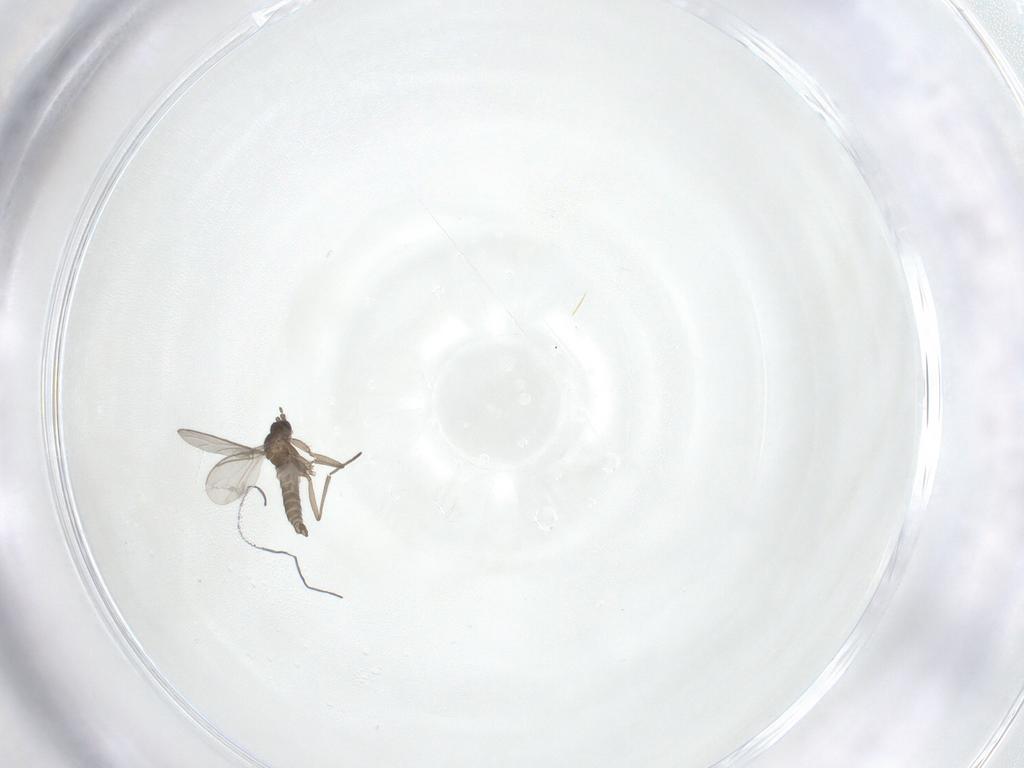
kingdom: Animalia
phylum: Arthropoda
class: Insecta
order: Diptera
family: Sciaridae
